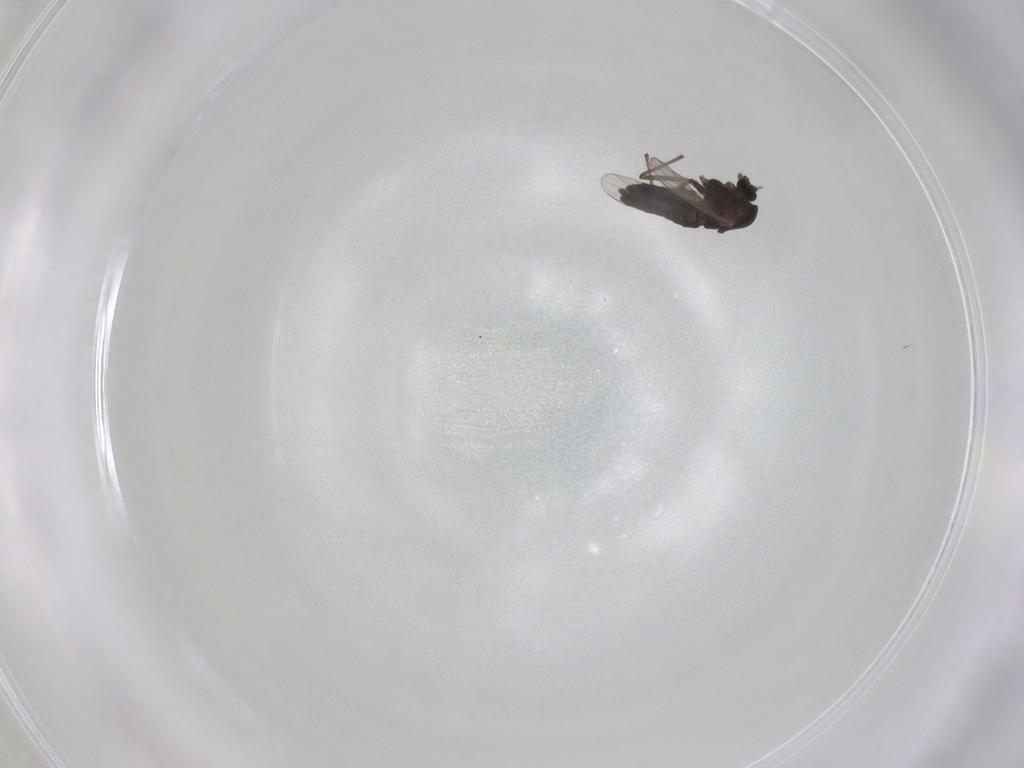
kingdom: Animalia
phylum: Arthropoda
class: Insecta
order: Diptera
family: Chironomidae
